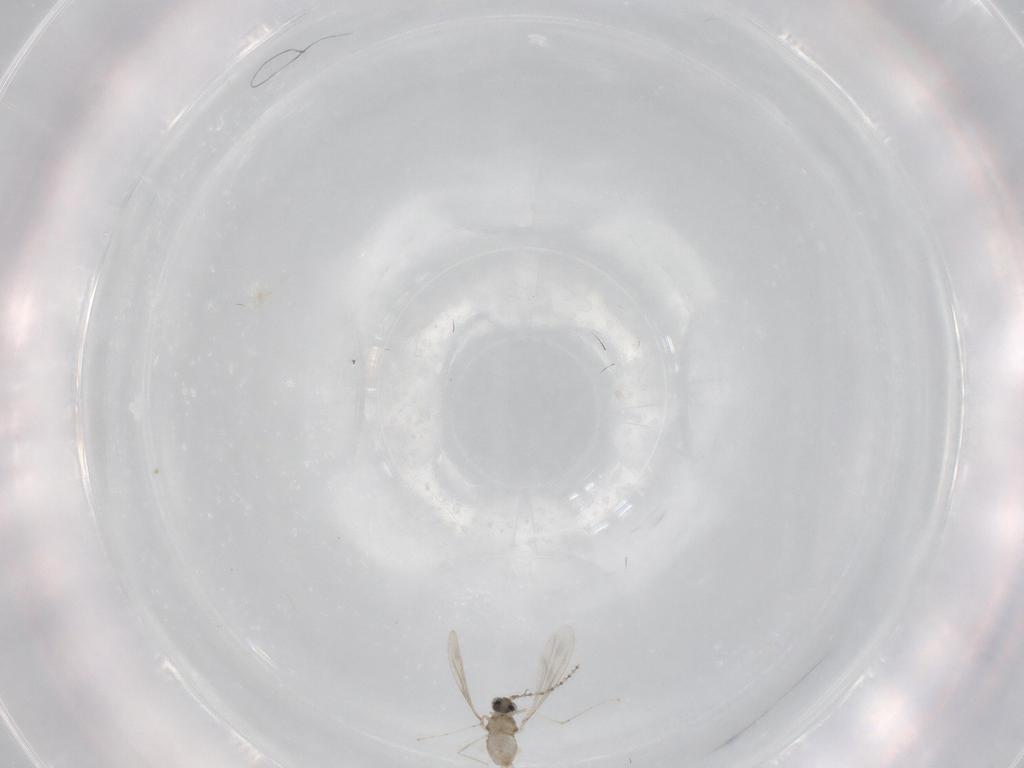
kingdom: Animalia
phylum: Arthropoda
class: Insecta
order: Diptera
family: Cecidomyiidae
